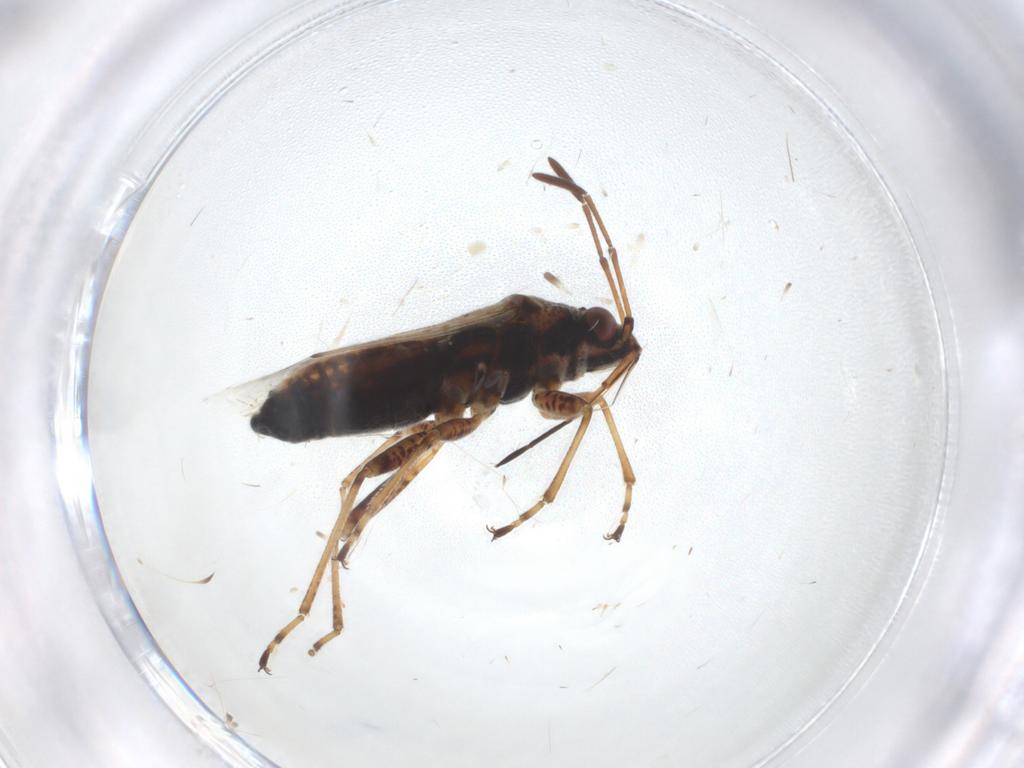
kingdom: Animalia
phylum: Arthropoda
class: Insecta
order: Hemiptera
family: Lygaeidae
